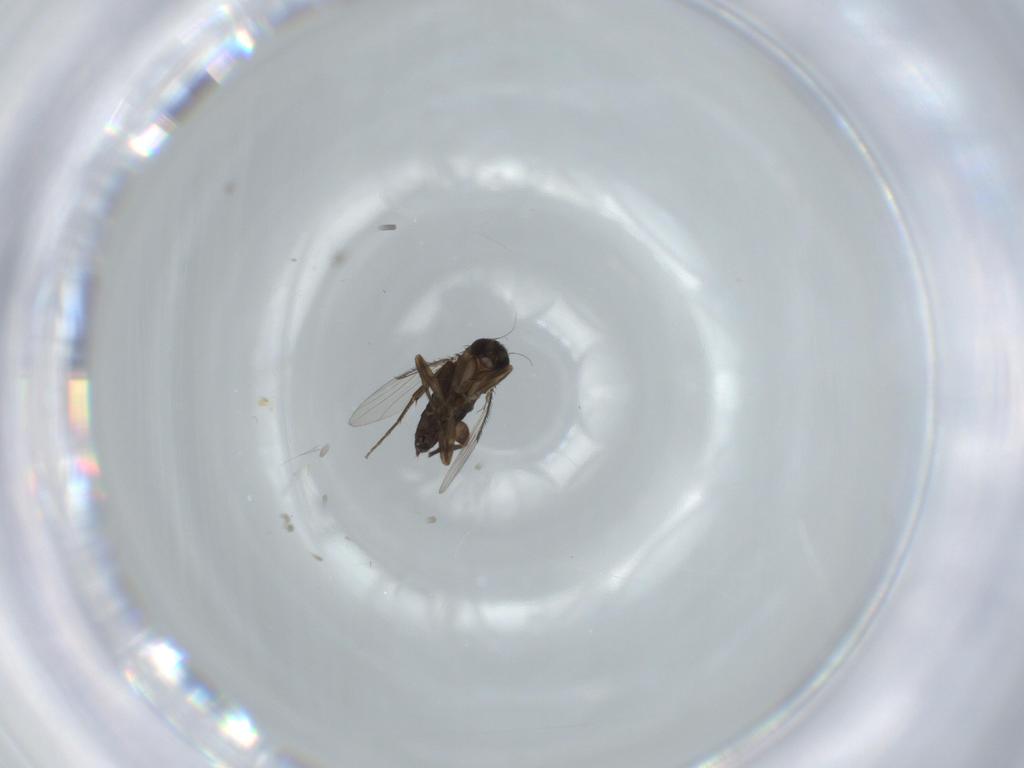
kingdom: Animalia
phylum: Arthropoda
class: Insecta
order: Diptera
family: Phoridae
